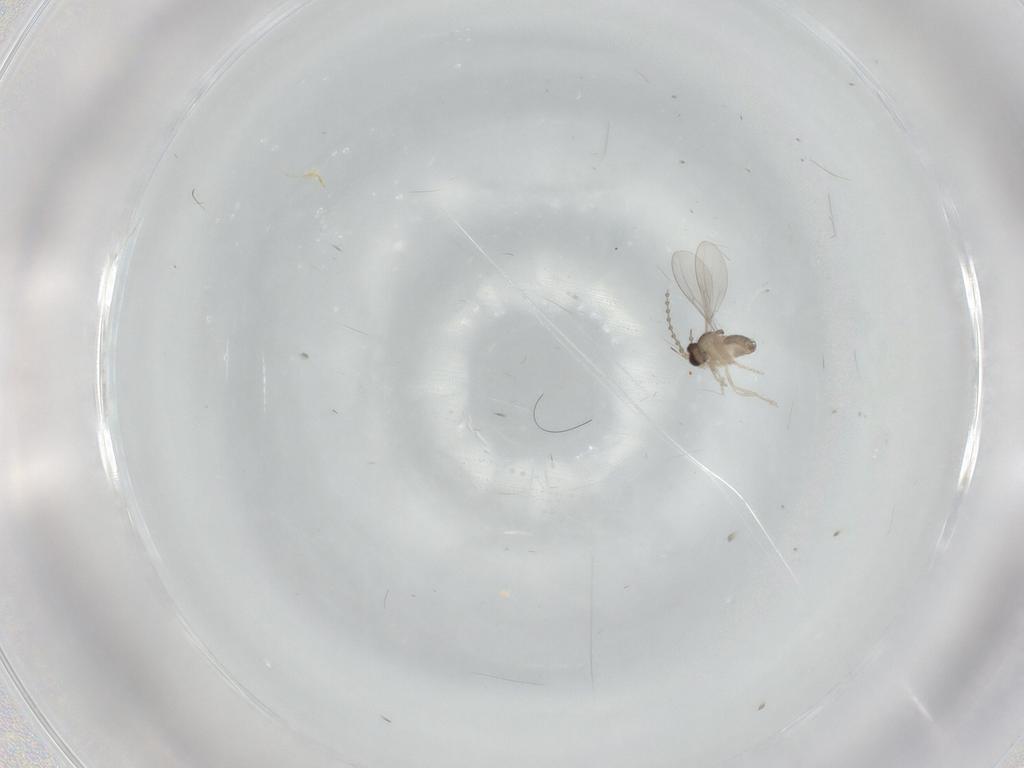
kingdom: Animalia
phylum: Arthropoda
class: Insecta
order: Diptera
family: Cecidomyiidae
